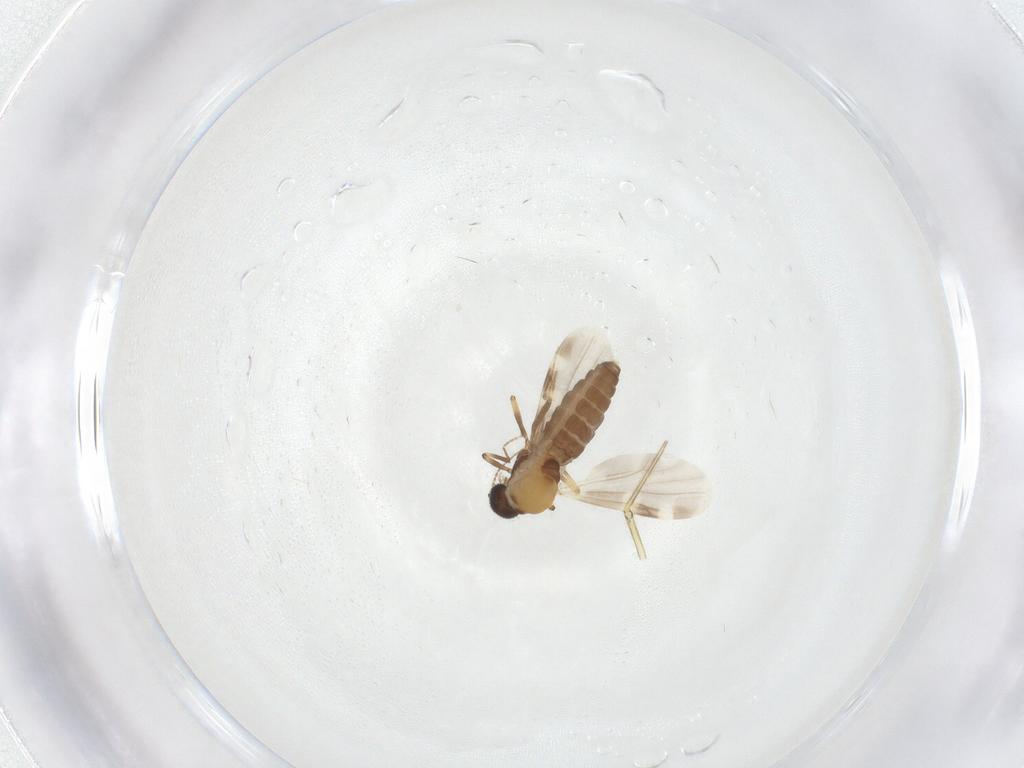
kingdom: Animalia
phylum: Arthropoda
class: Insecta
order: Diptera
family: Ceratopogonidae
